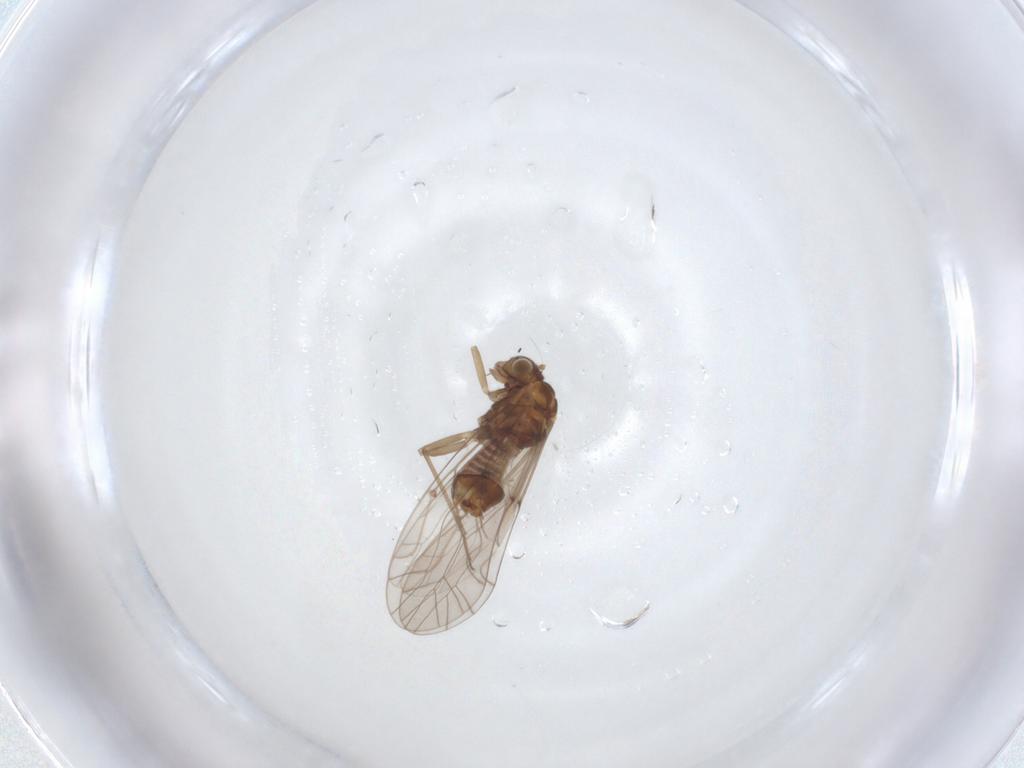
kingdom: Animalia
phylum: Arthropoda
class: Insecta
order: Psocodea
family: Lachesillidae
